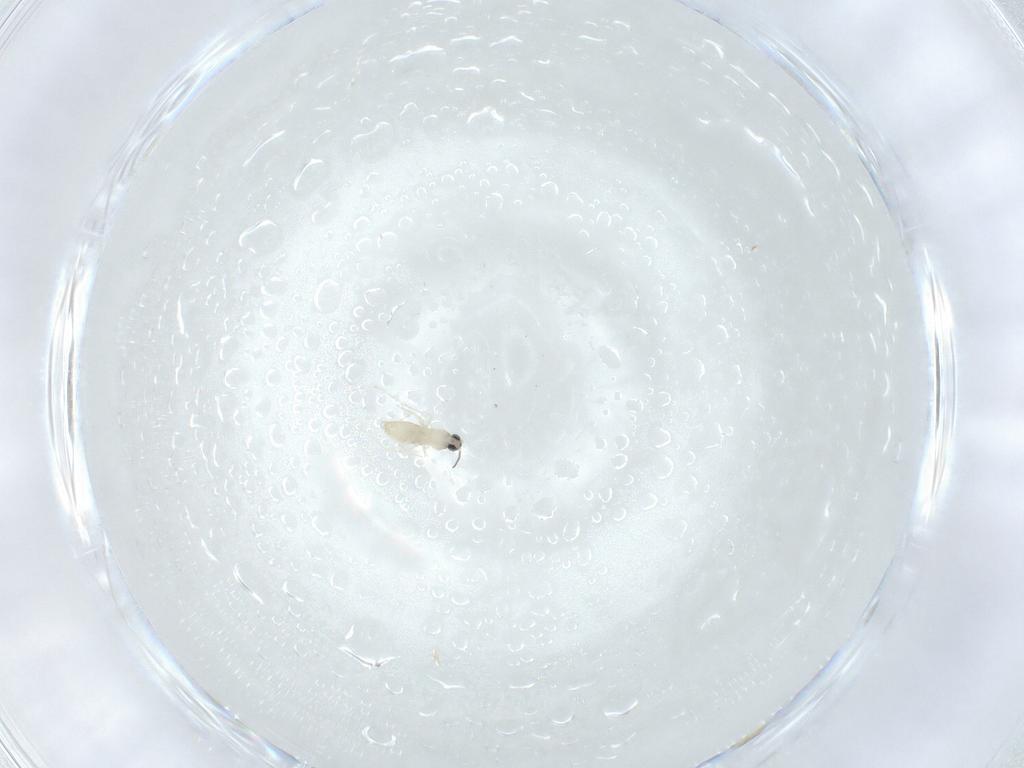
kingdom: Animalia
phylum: Arthropoda
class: Insecta
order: Diptera
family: Cecidomyiidae
